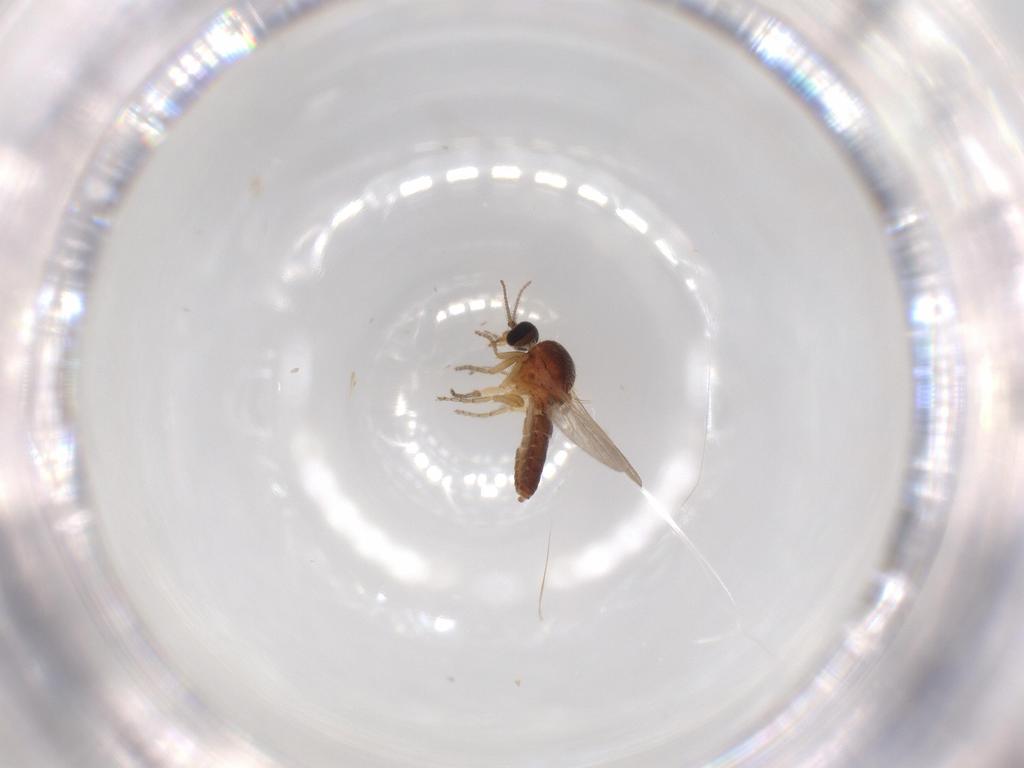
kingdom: Animalia
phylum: Arthropoda
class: Insecta
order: Diptera
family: Ceratopogonidae
